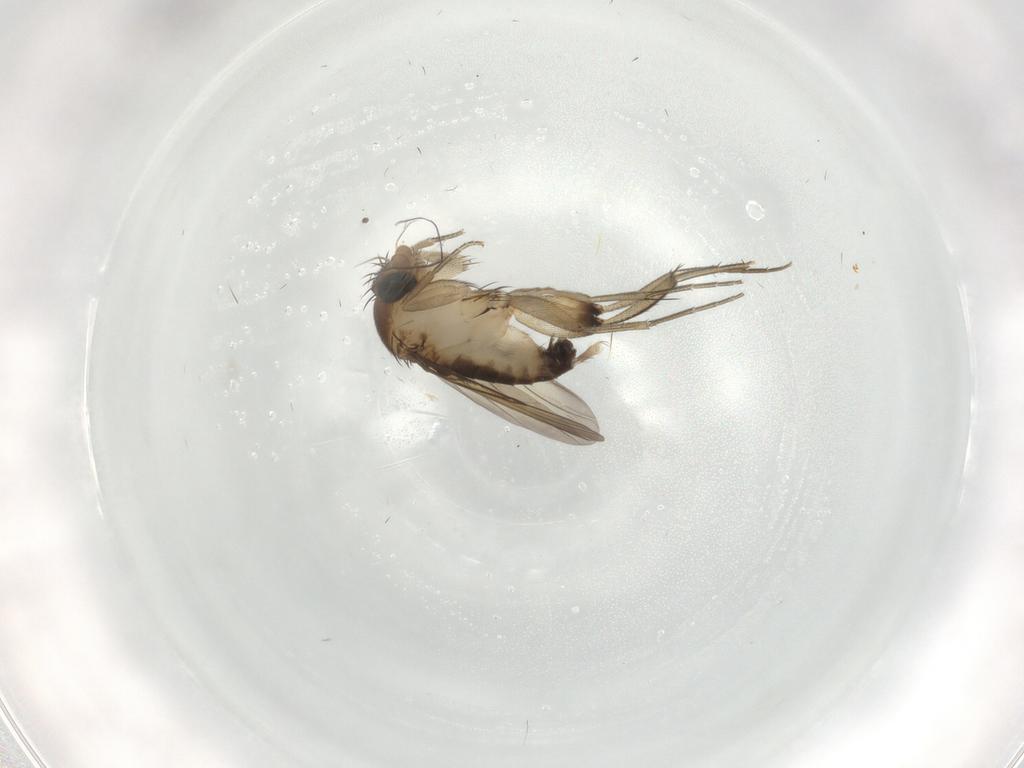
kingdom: Animalia
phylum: Arthropoda
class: Insecta
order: Diptera
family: Phoridae
